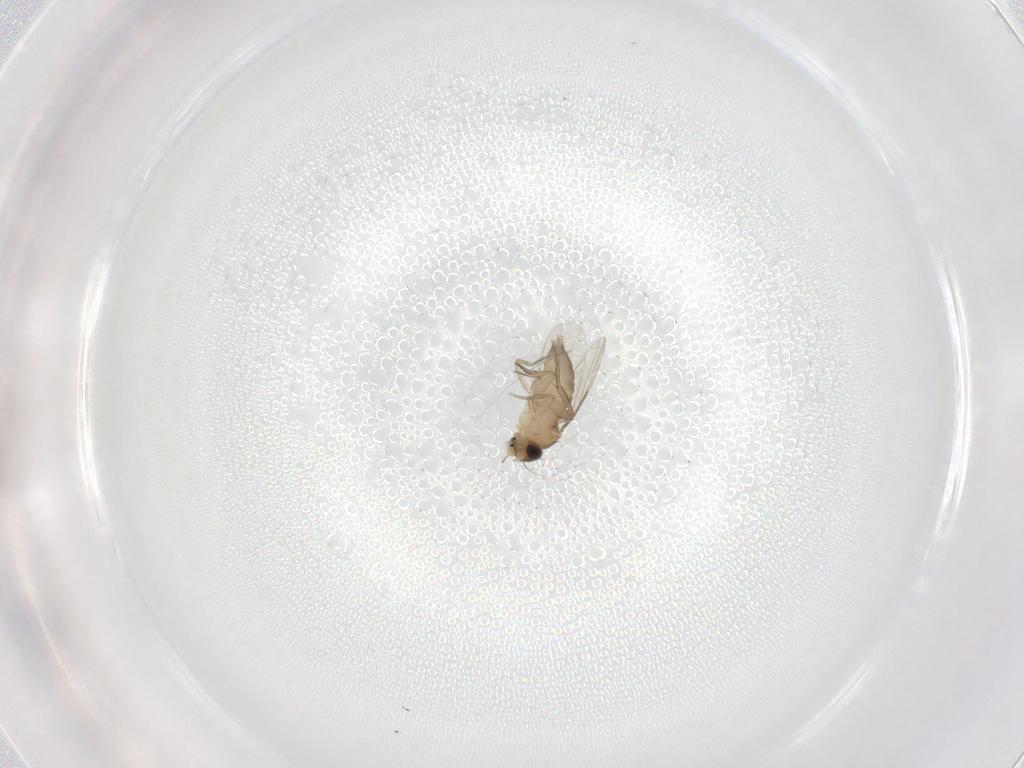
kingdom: Animalia
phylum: Arthropoda
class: Insecta
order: Diptera
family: Phoridae
